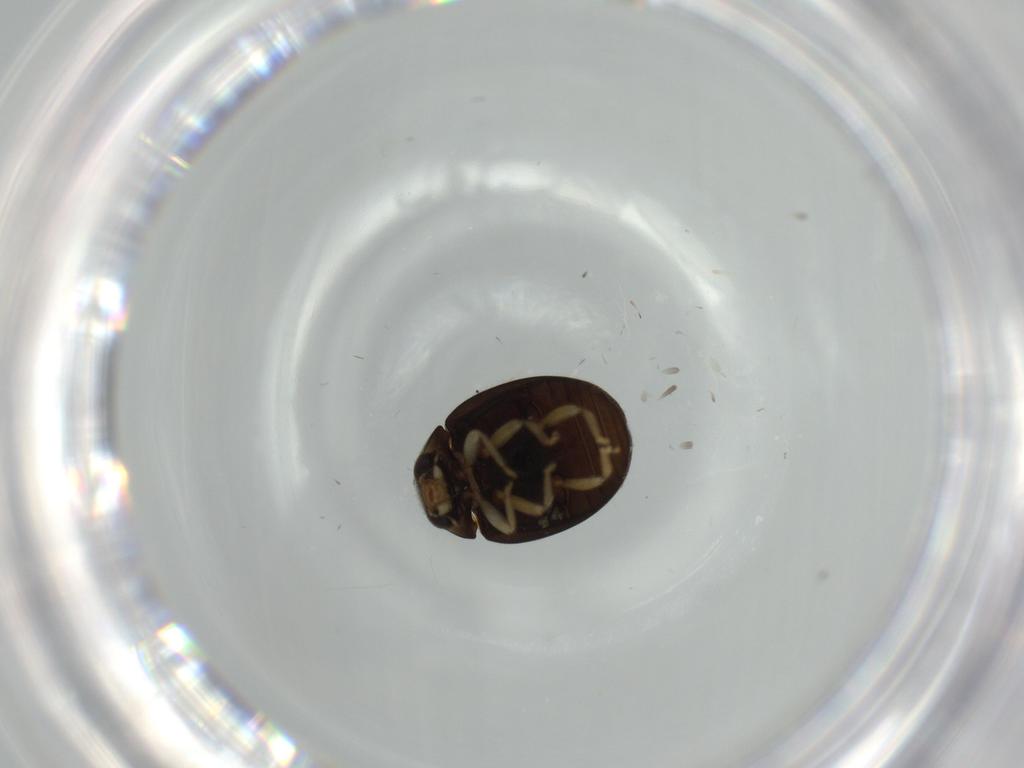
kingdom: Animalia
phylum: Arthropoda
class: Insecta
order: Coleoptera
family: Coccinellidae
